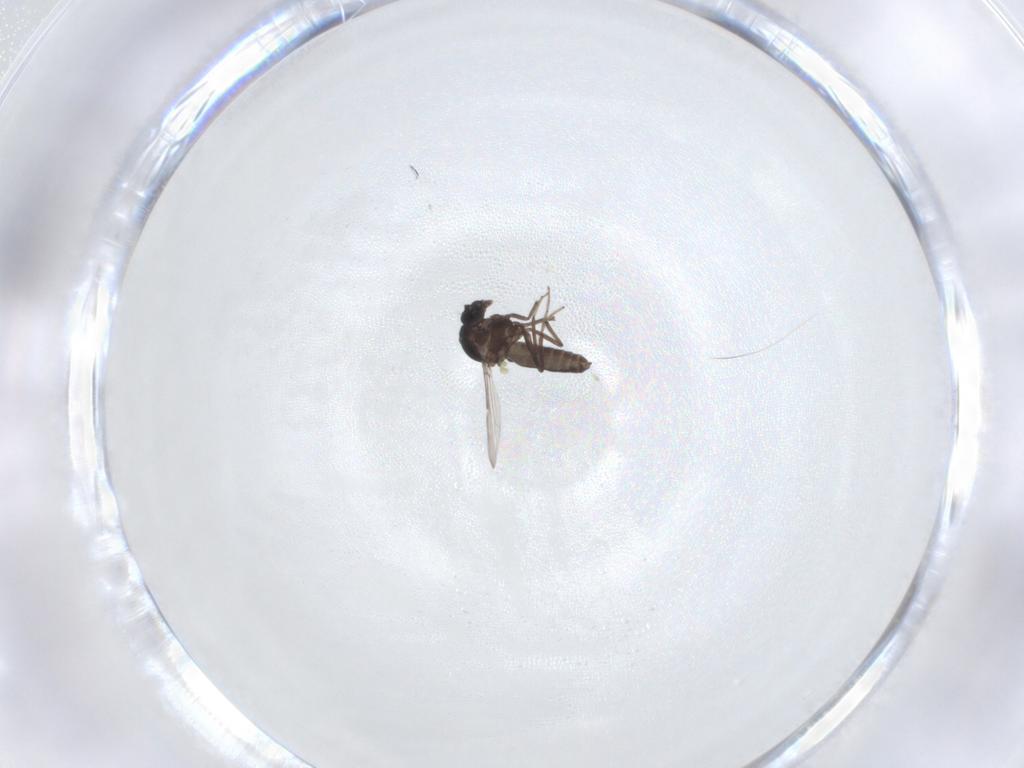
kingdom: Animalia
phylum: Arthropoda
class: Insecta
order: Diptera
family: Ceratopogonidae
